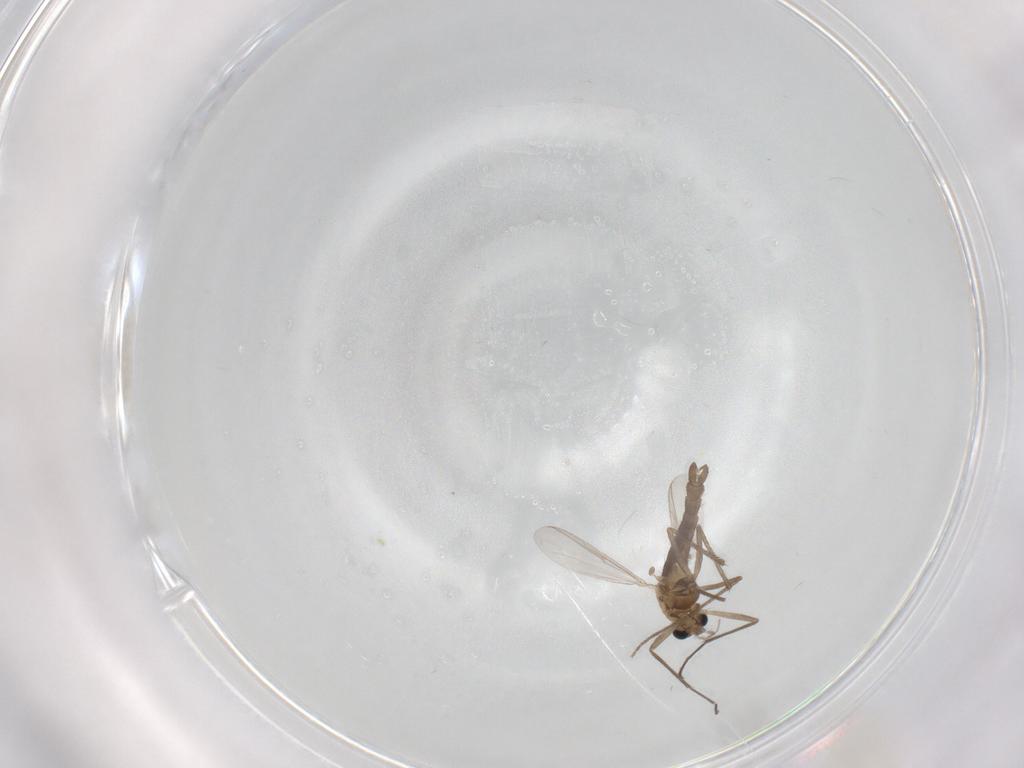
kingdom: Animalia
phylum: Arthropoda
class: Insecta
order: Diptera
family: Chironomidae
